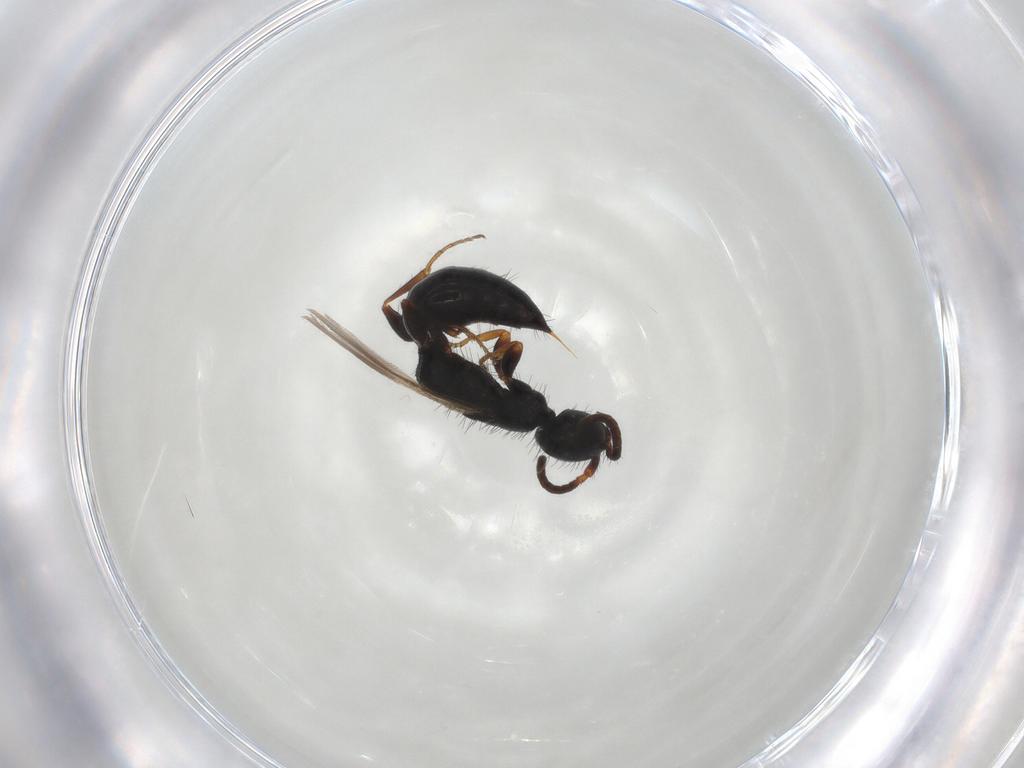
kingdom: Animalia
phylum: Arthropoda
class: Insecta
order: Hymenoptera
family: Bethylidae
